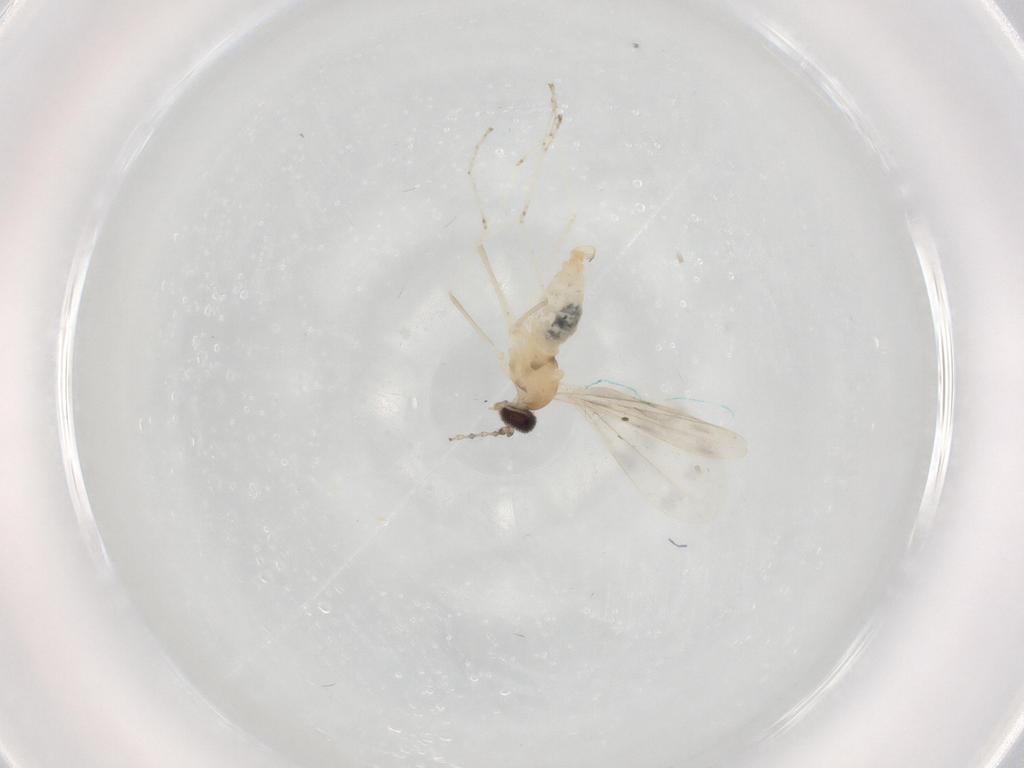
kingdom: Animalia
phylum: Arthropoda
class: Insecta
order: Diptera
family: Cecidomyiidae
